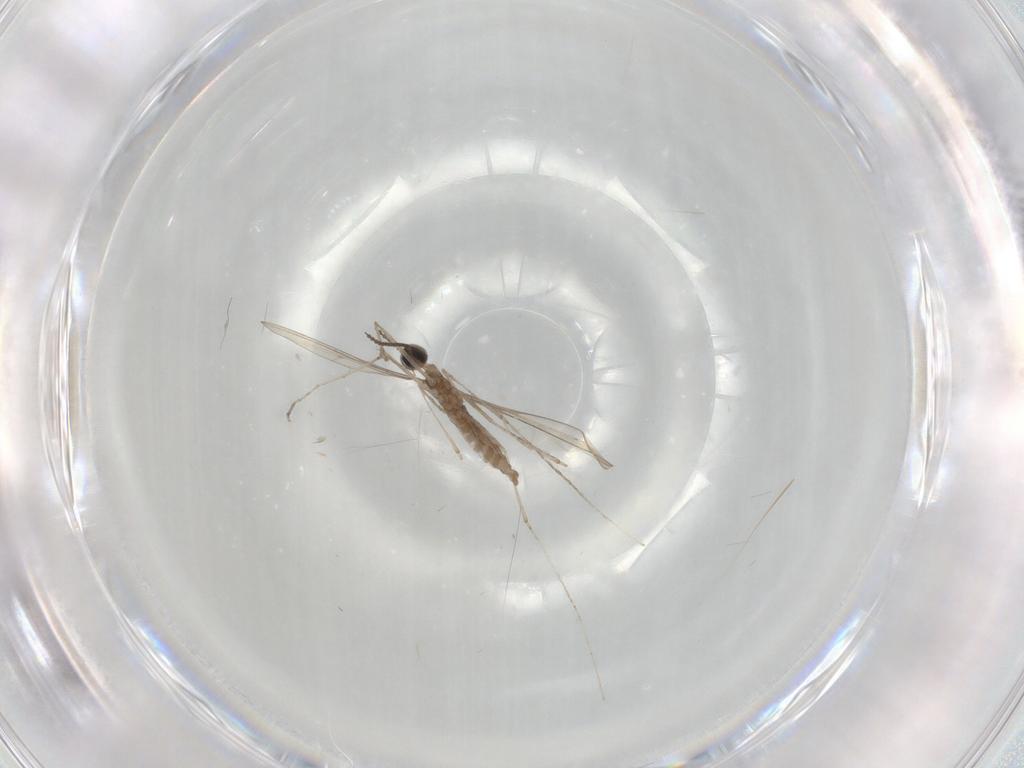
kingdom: Animalia
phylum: Arthropoda
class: Insecta
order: Diptera
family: Cecidomyiidae
